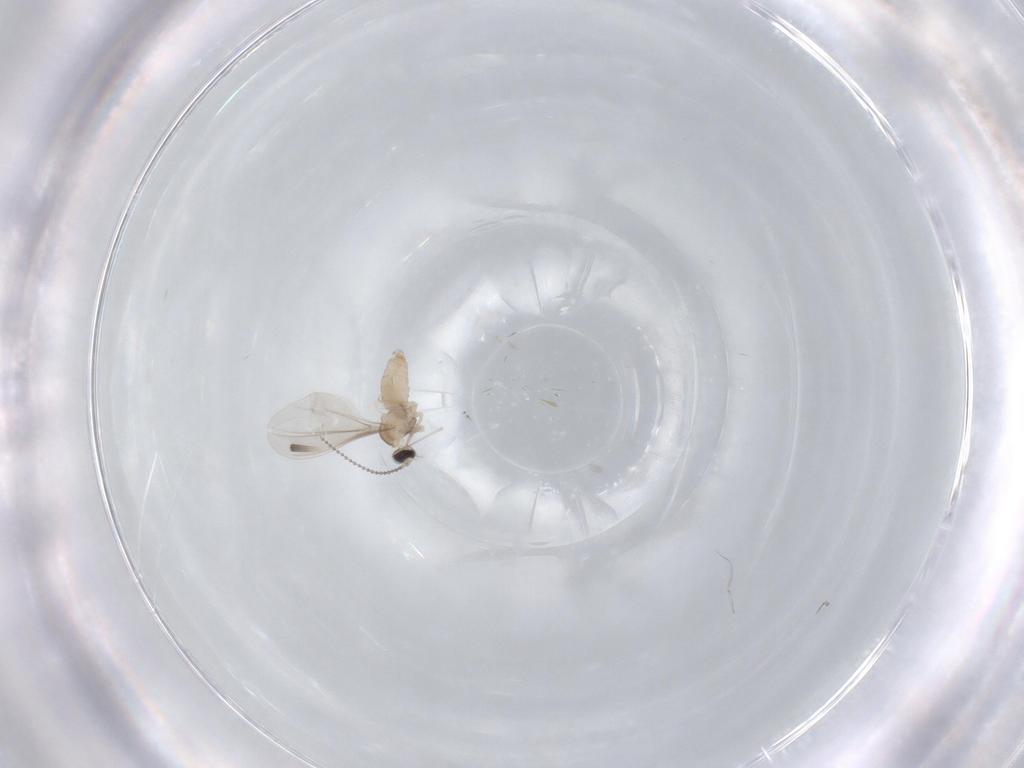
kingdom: Animalia
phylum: Arthropoda
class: Insecta
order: Diptera
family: Cecidomyiidae
